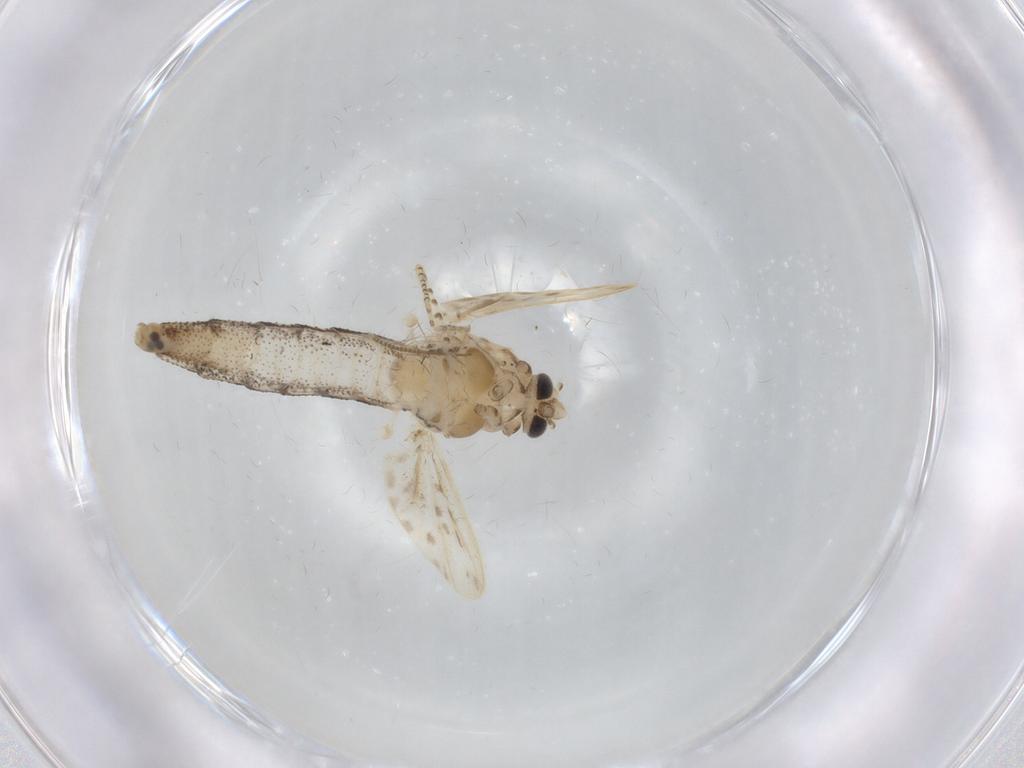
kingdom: Animalia
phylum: Arthropoda
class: Insecta
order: Diptera
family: Chaoboridae
